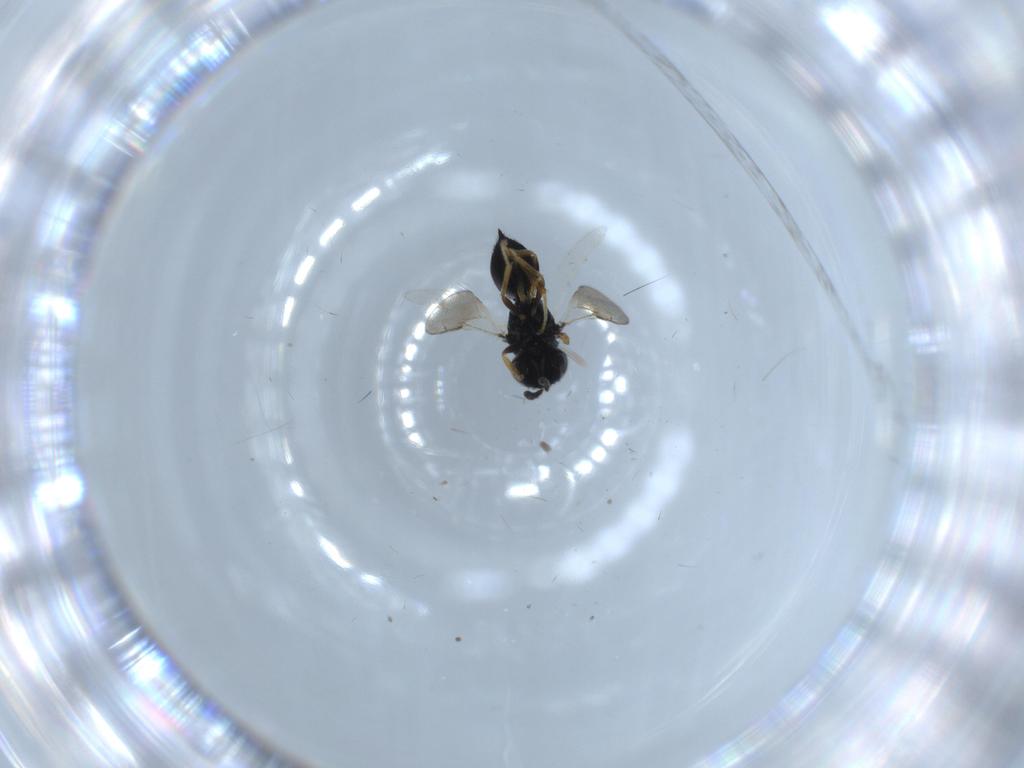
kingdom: Animalia
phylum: Arthropoda
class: Insecta
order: Hymenoptera
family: Pteromalidae
